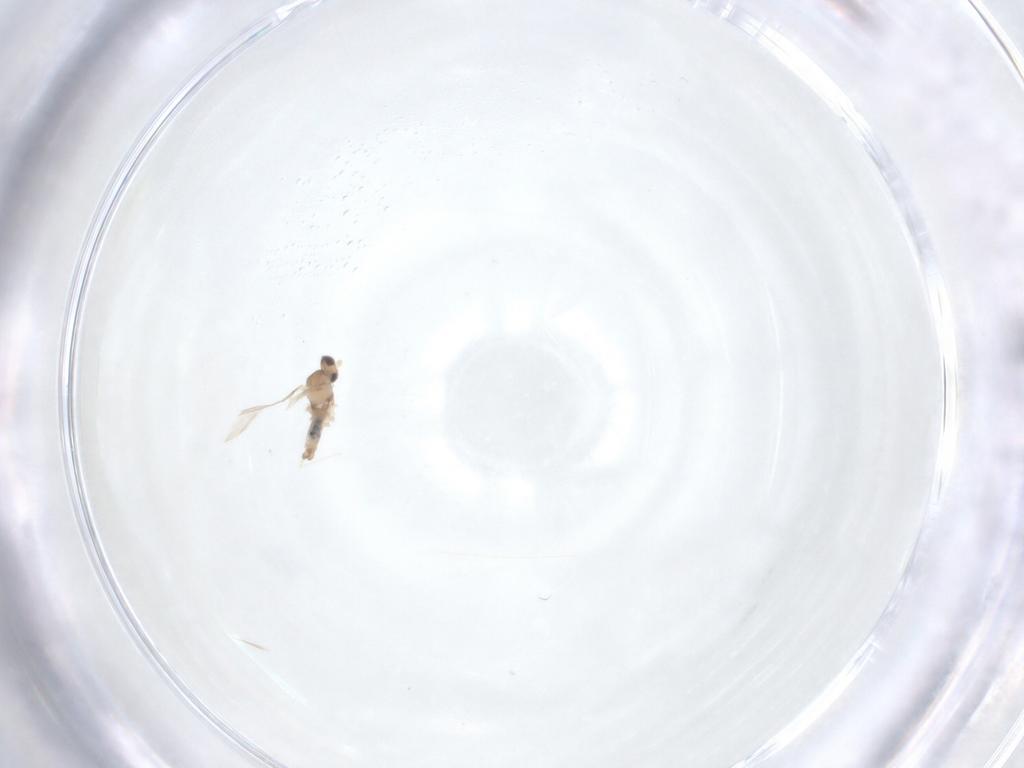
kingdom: Animalia
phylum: Arthropoda
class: Insecta
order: Diptera
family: Cecidomyiidae
